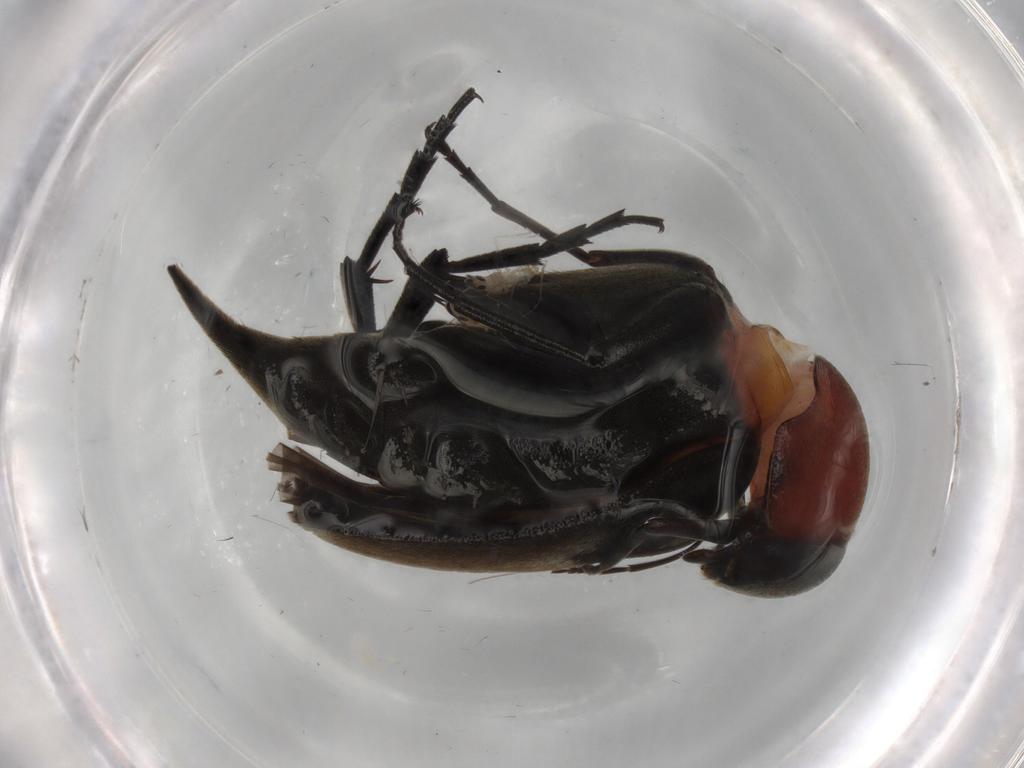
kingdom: Animalia
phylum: Arthropoda
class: Insecta
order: Coleoptera
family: Mordellidae
